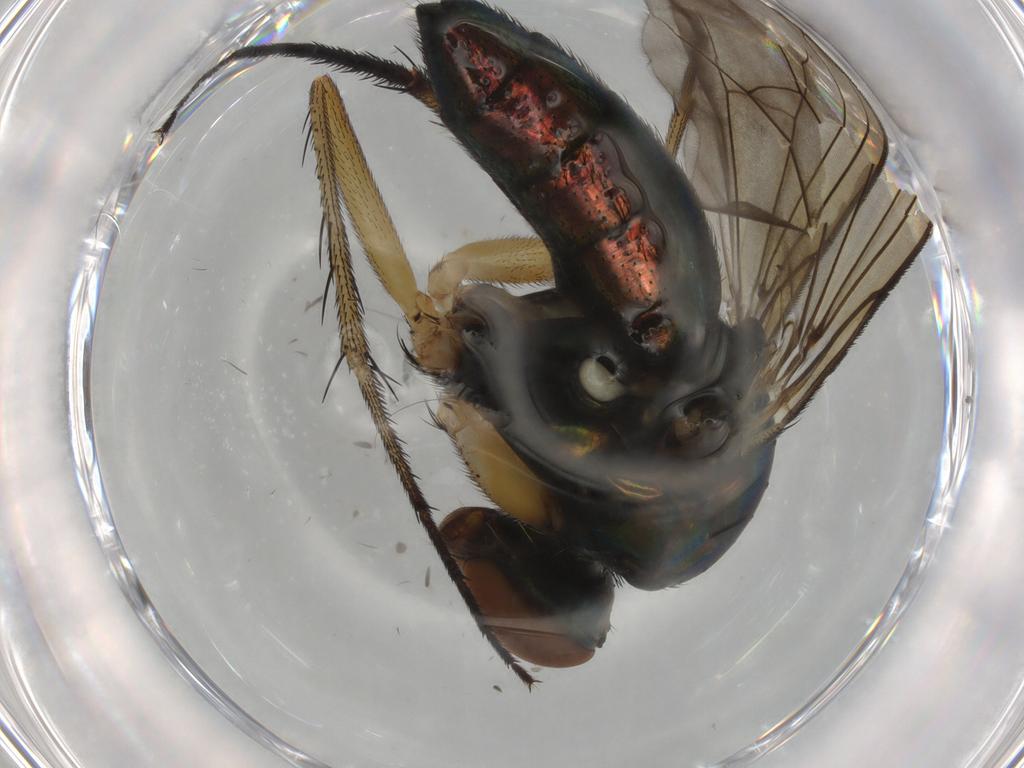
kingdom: Animalia
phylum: Arthropoda
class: Insecta
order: Diptera
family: Dolichopodidae
